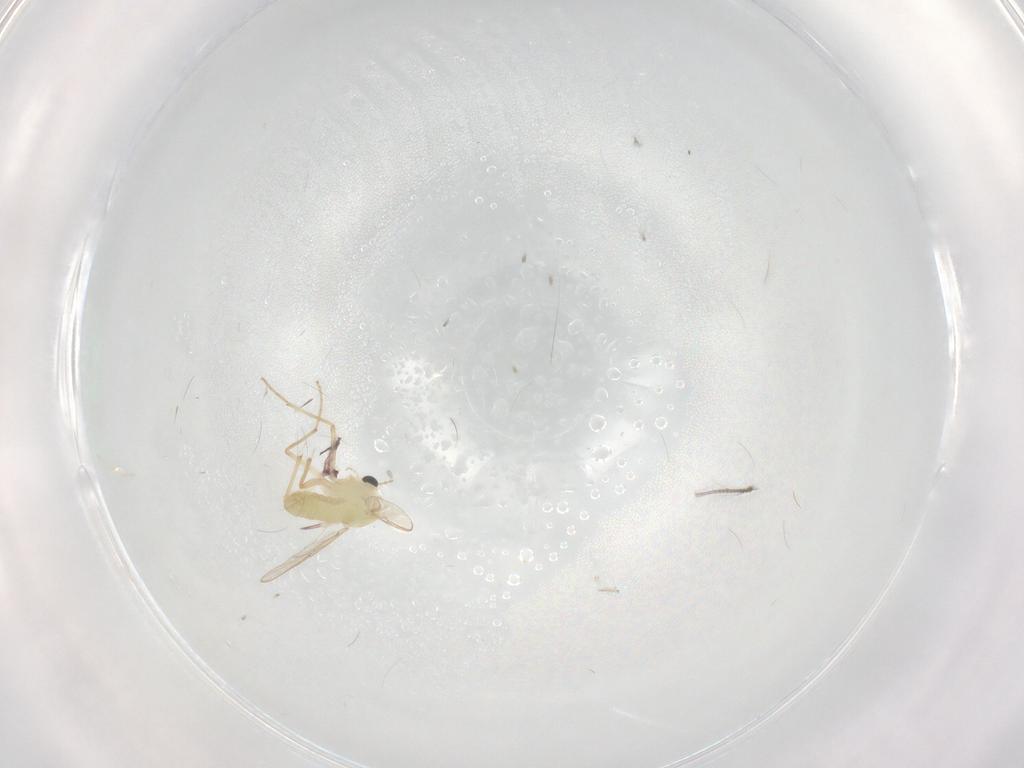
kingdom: Animalia
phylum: Arthropoda
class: Insecta
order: Diptera
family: Chironomidae
